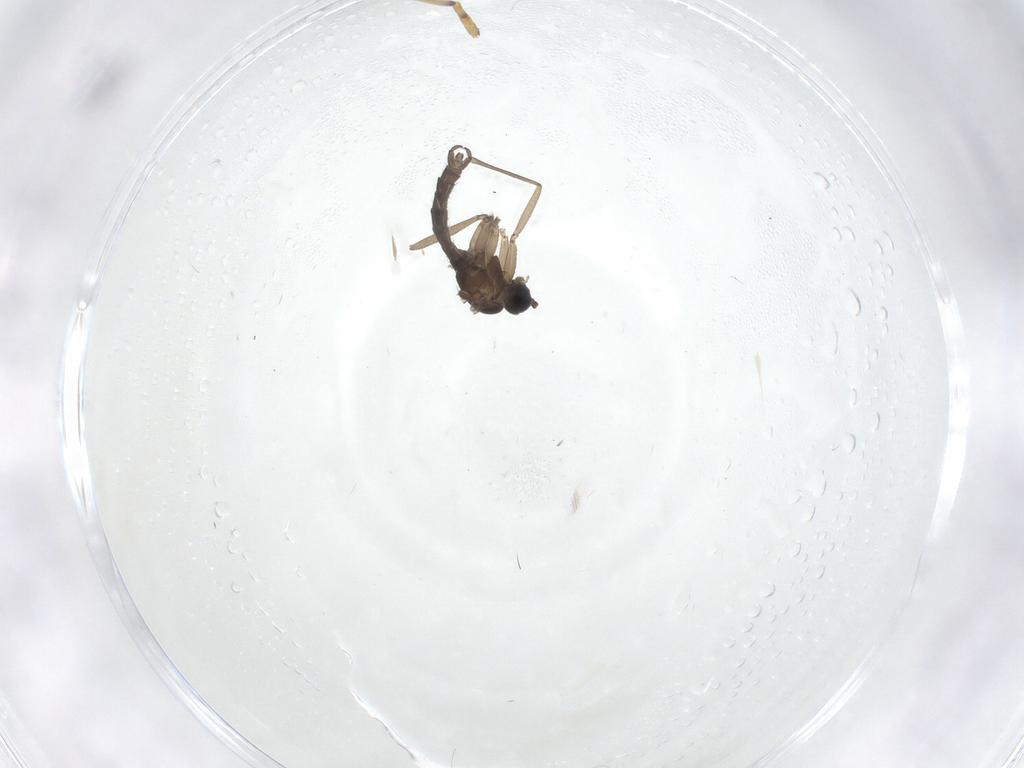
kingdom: Animalia
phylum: Arthropoda
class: Insecta
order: Diptera
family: Sciaridae
